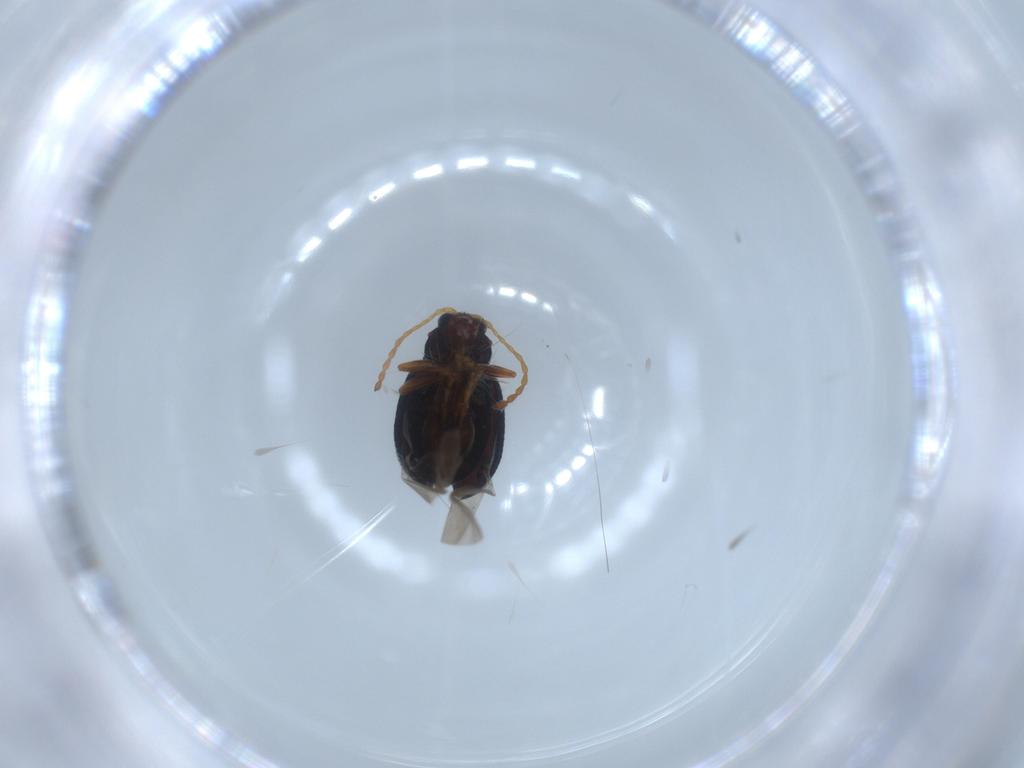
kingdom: Animalia
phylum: Arthropoda
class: Insecta
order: Coleoptera
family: Chrysomelidae
